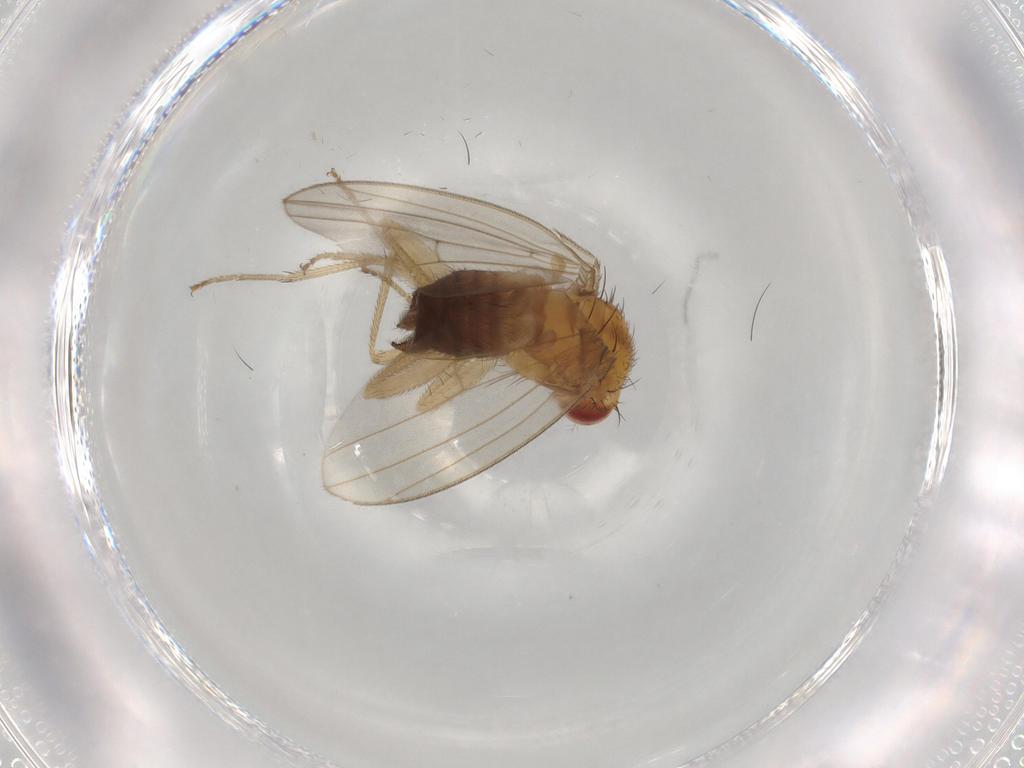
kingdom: Animalia
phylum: Arthropoda
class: Insecta
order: Diptera
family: Polleniidae
